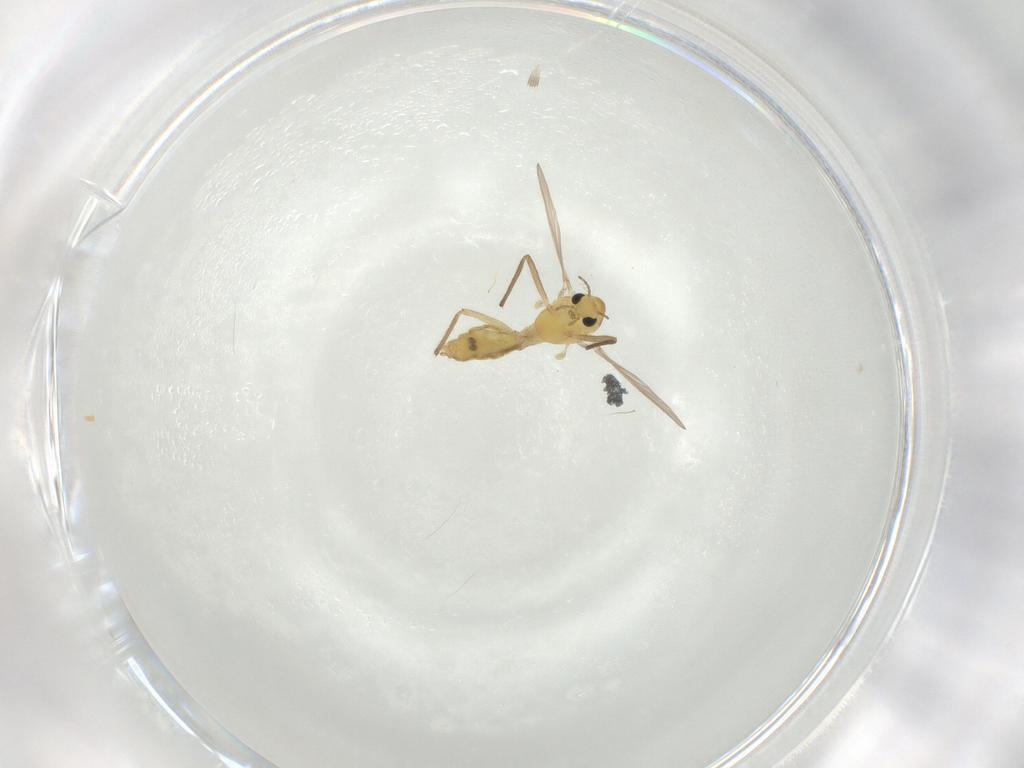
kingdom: Animalia
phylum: Arthropoda
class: Insecta
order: Diptera
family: Chironomidae
